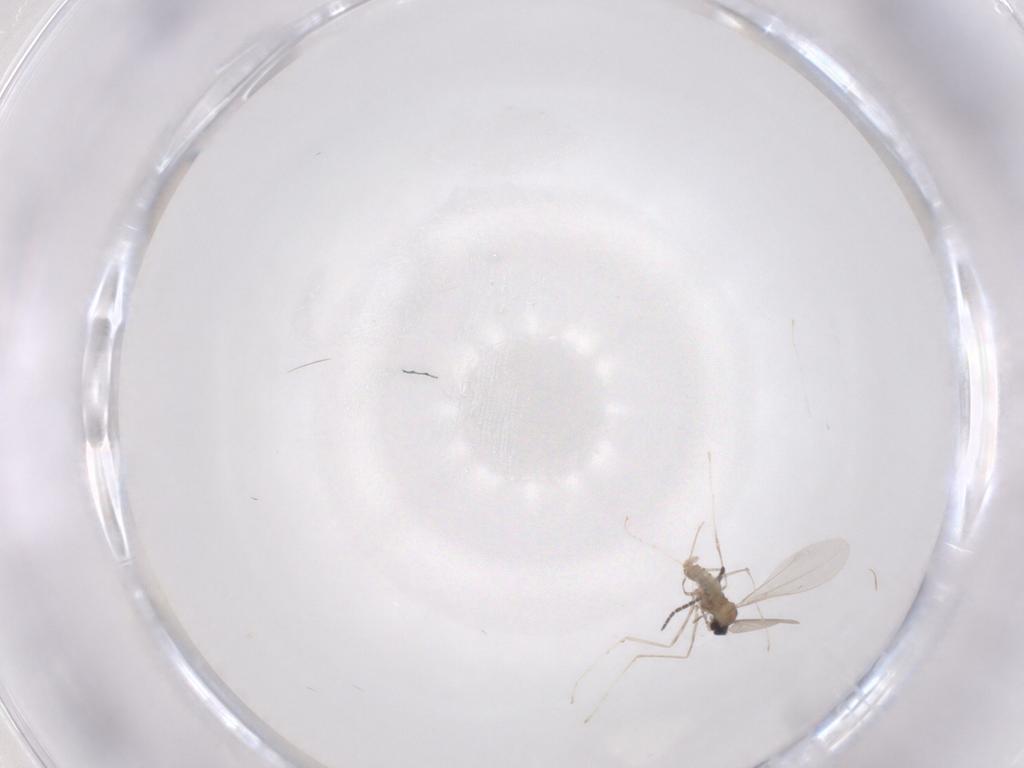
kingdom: Animalia
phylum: Arthropoda
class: Insecta
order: Diptera
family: Cecidomyiidae
